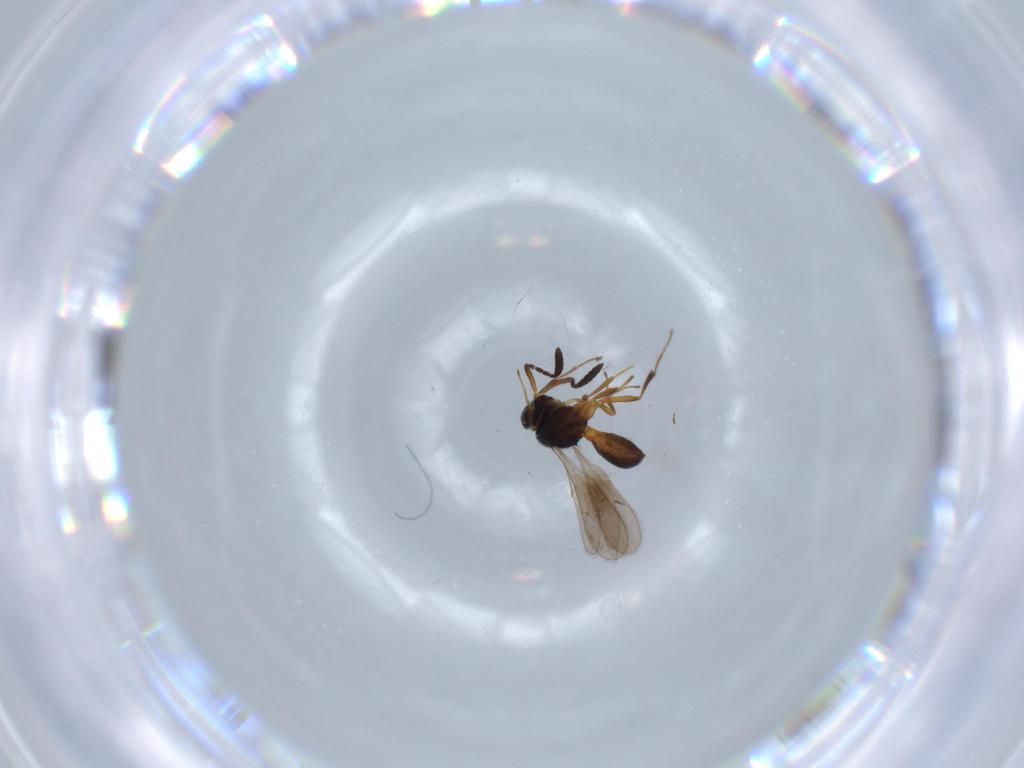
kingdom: Animalia
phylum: Arthropoda
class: Insecta
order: Hymenoptera
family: Scelionidae
